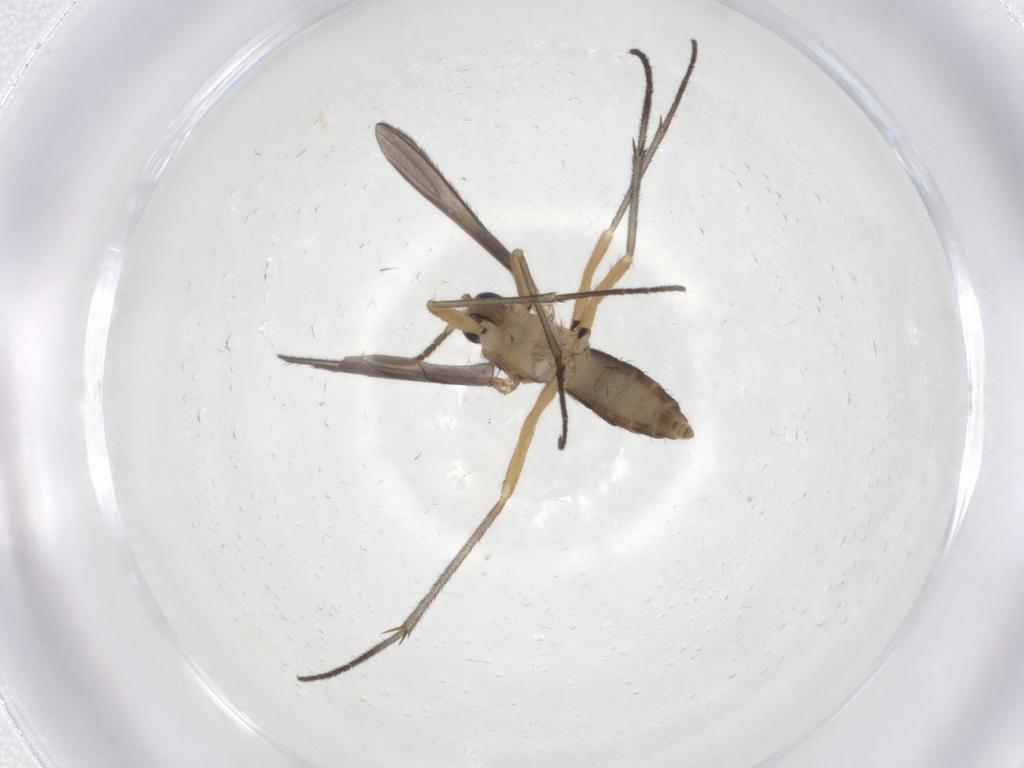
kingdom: Animalia
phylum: Arthropoda
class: Insecta
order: Diptera
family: Sciaridae
